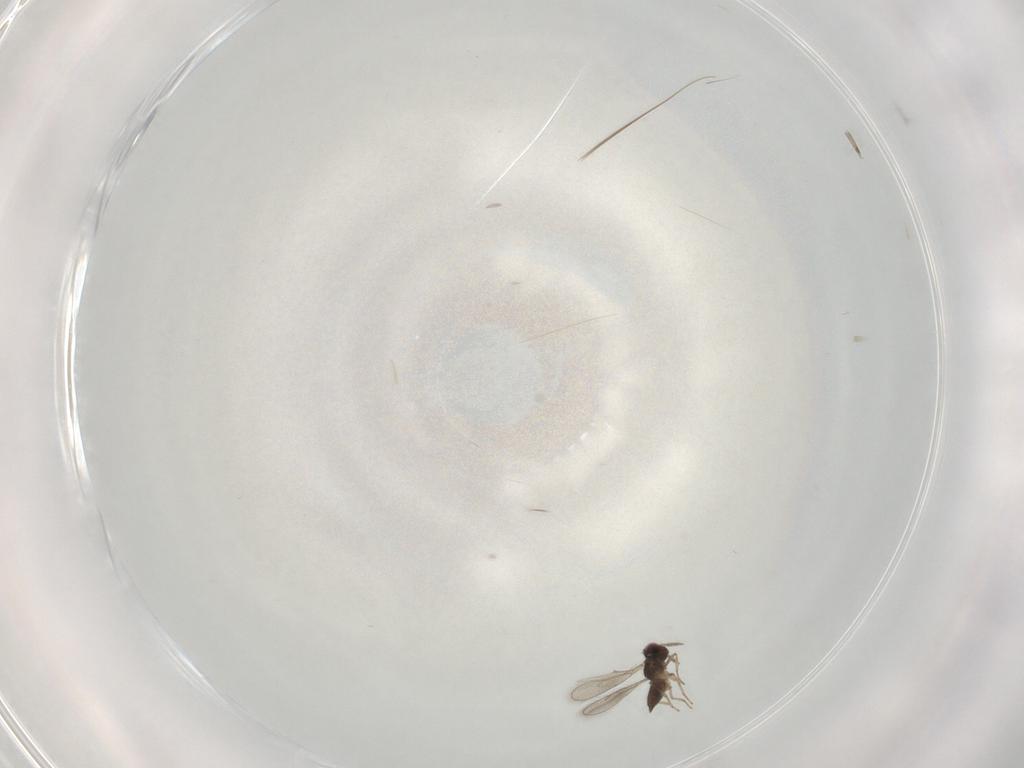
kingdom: Animalia
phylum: Arthropoda
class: Insecta
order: Hymenoptera
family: Eulophidae
